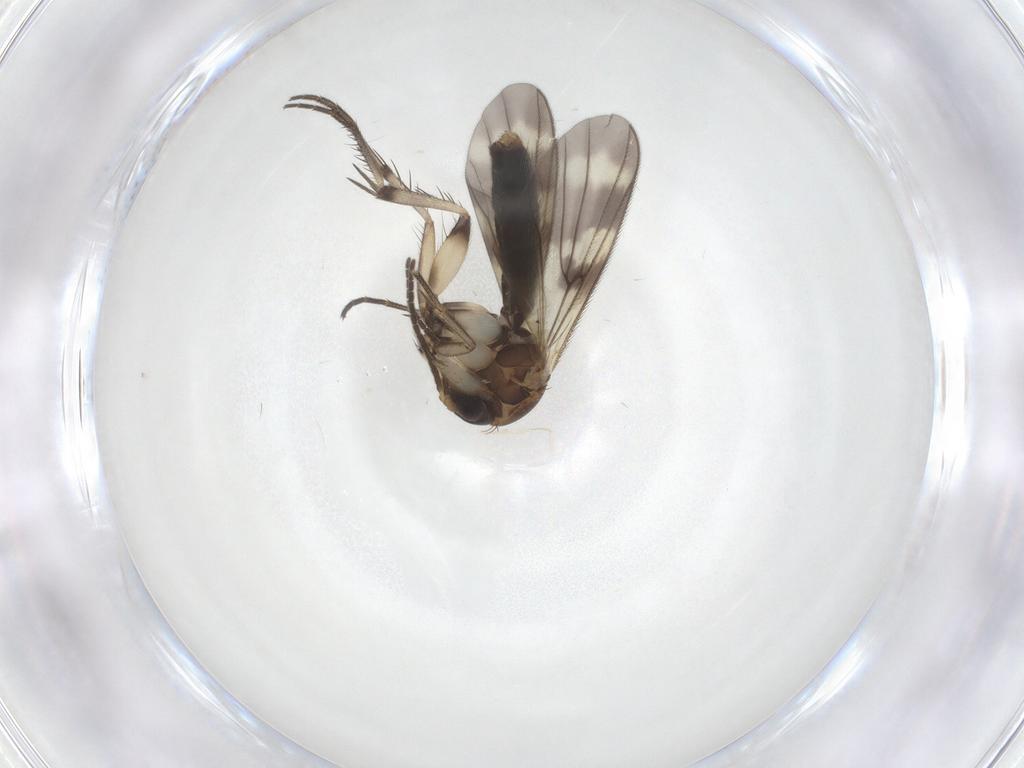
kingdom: Animalia
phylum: Arthropoda
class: Insecta
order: Diptera
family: Mycetophilidae
